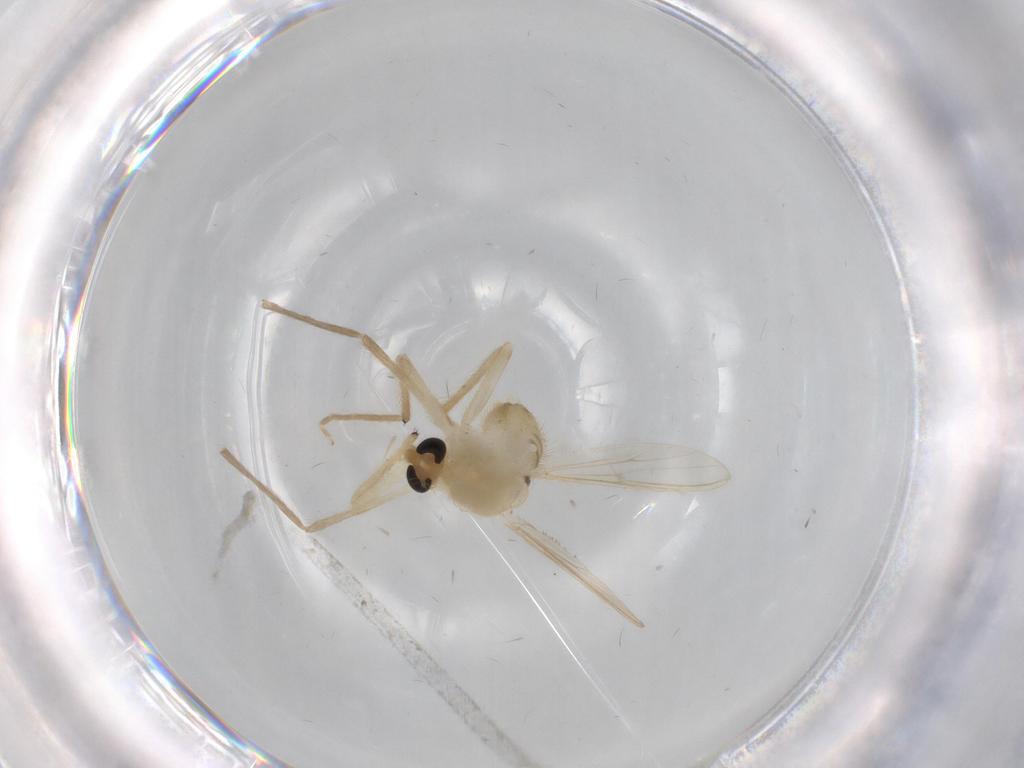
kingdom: Animalia
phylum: Arthropoda
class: Insecta
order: Diptera
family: Chironomidae
